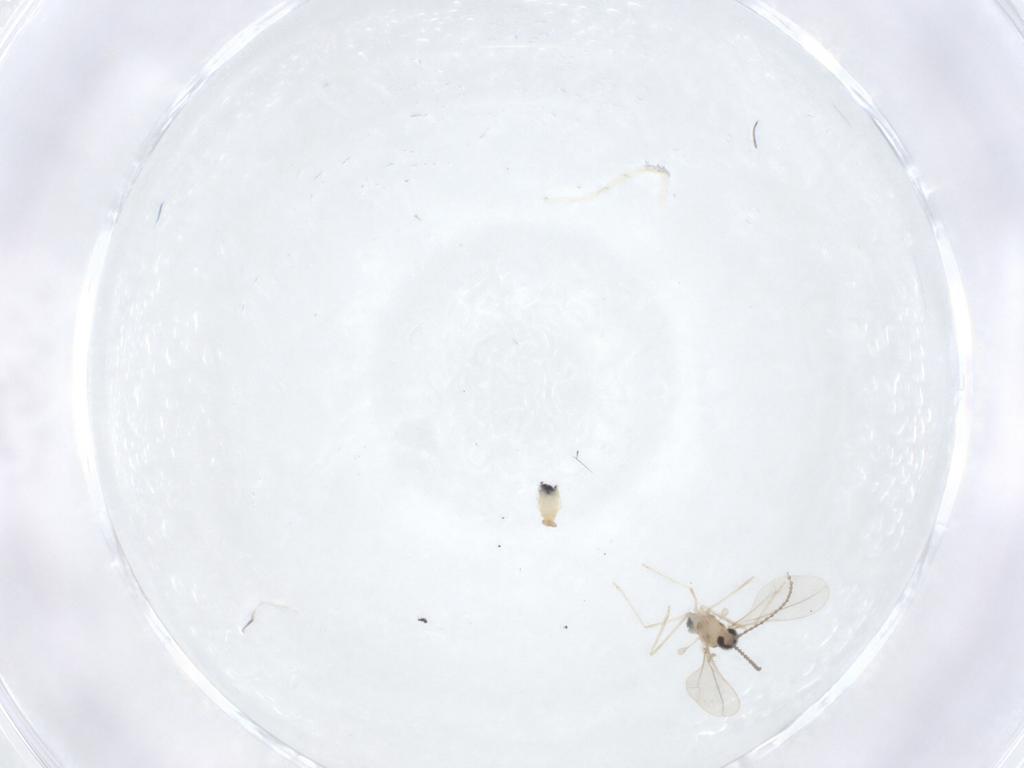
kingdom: Animalia
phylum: Arthropoda
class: Insecta
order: Diptera
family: Cecidomyiidae
